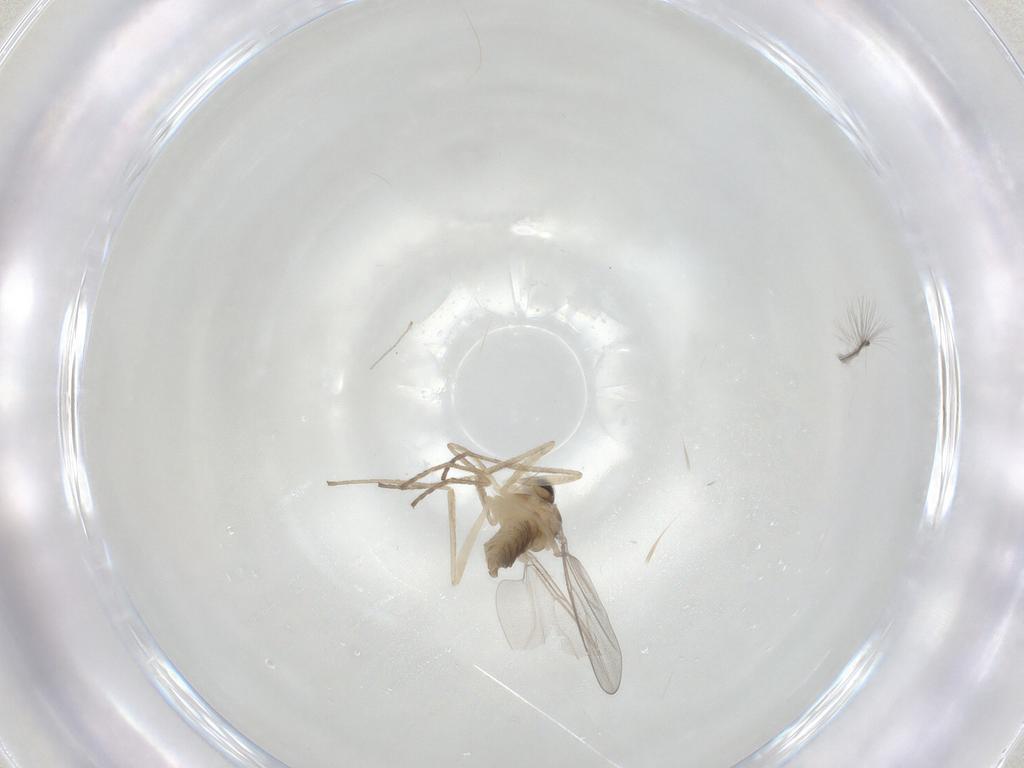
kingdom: Animalia
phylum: Arthropoda
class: Insecta
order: Diptera
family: Cecidomyiidae
